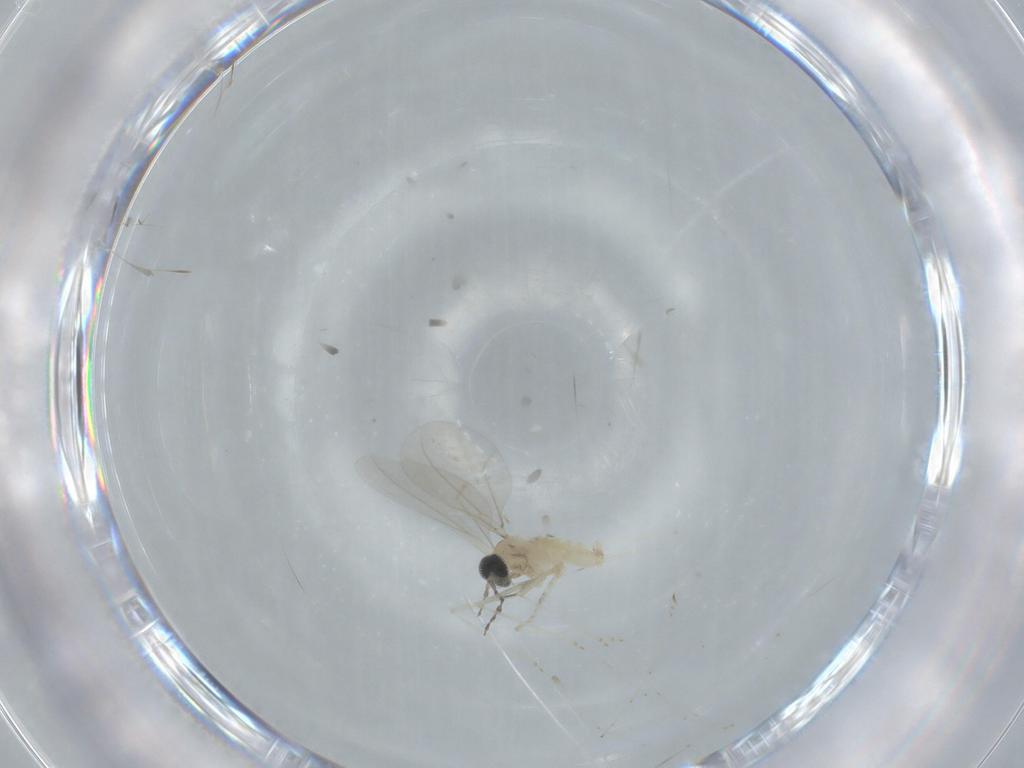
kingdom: Animalia
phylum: Arthropoda
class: Insecta
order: Diptera
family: Cecidomyiidae
